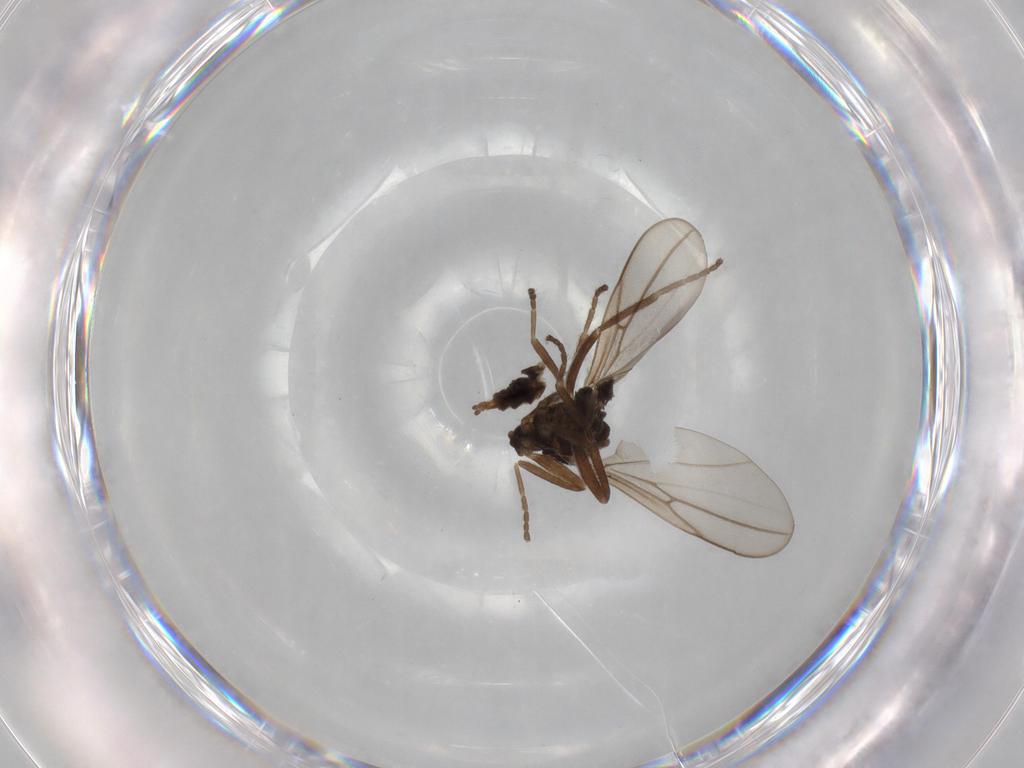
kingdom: Animalia
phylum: Arthropoda
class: Insecta
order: Diptera
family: Cecidomyiidae
